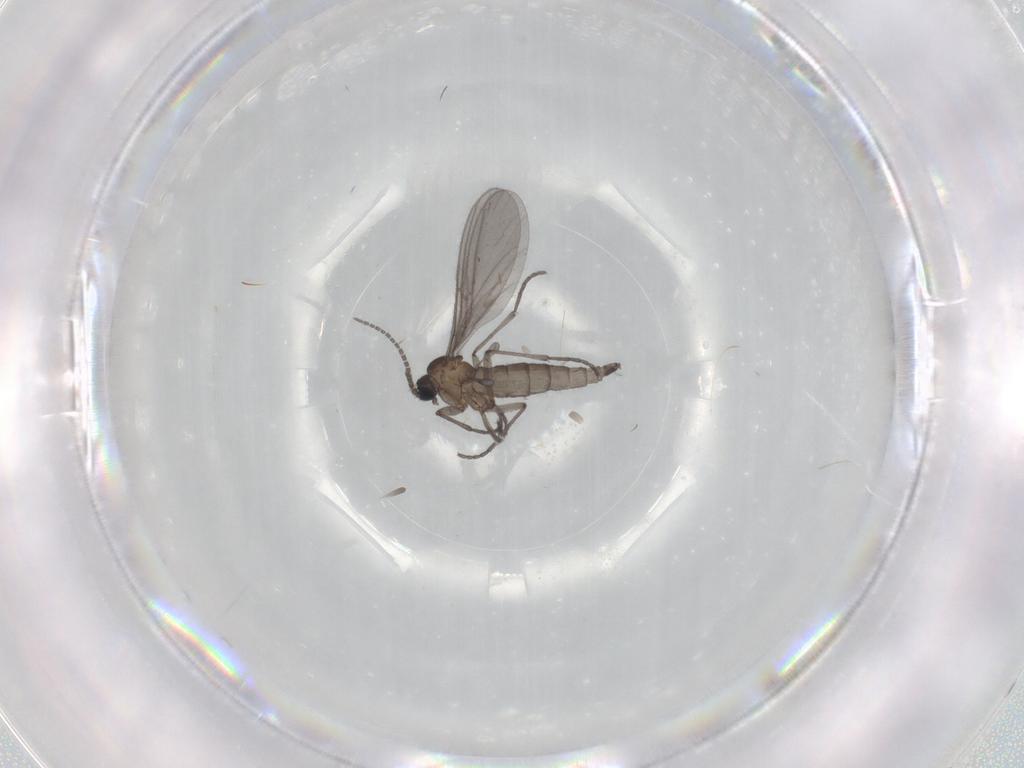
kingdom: Animalia
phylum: Arthropoda
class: Insecta
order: Diptera
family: Sciaridae
